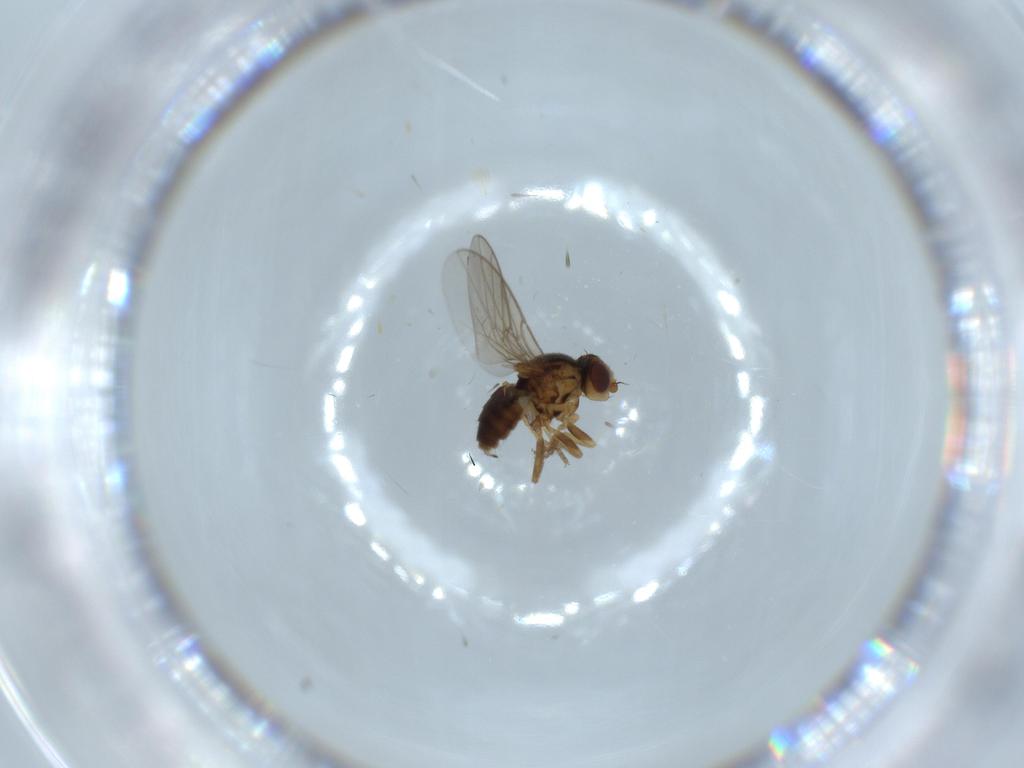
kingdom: Animalia
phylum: Arthropoda
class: Insecta
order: Diptera
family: Chloropidae
